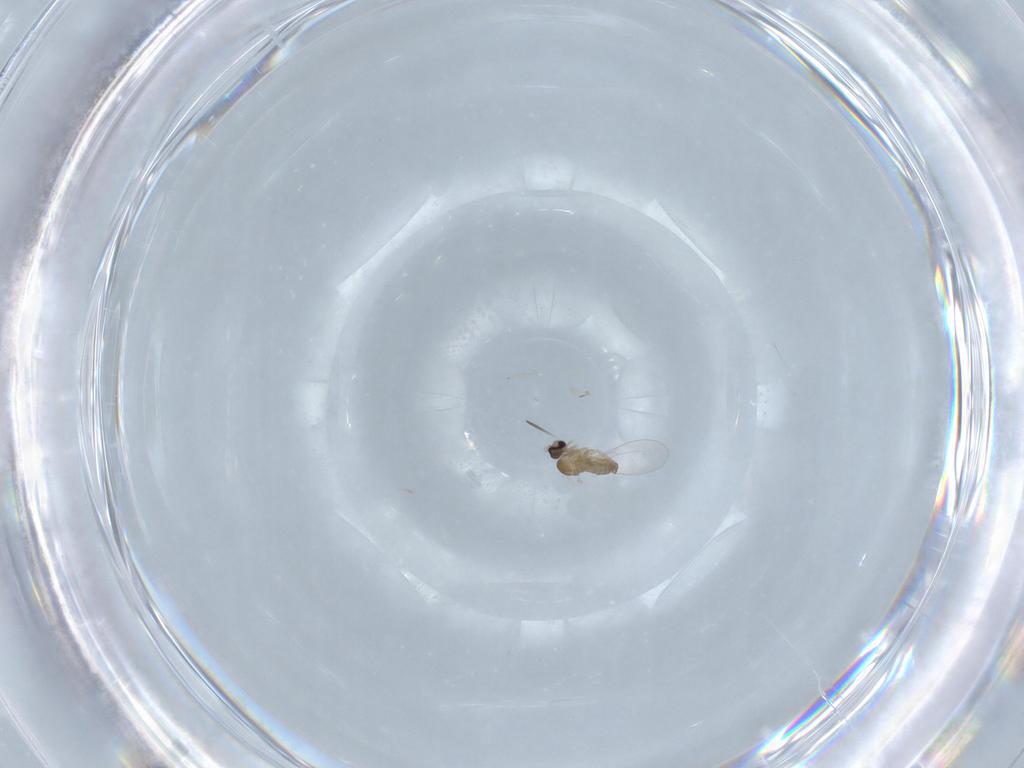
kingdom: Animalia
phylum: Arthropoda
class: Insecta
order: Diptera
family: Cecidomyiidae
